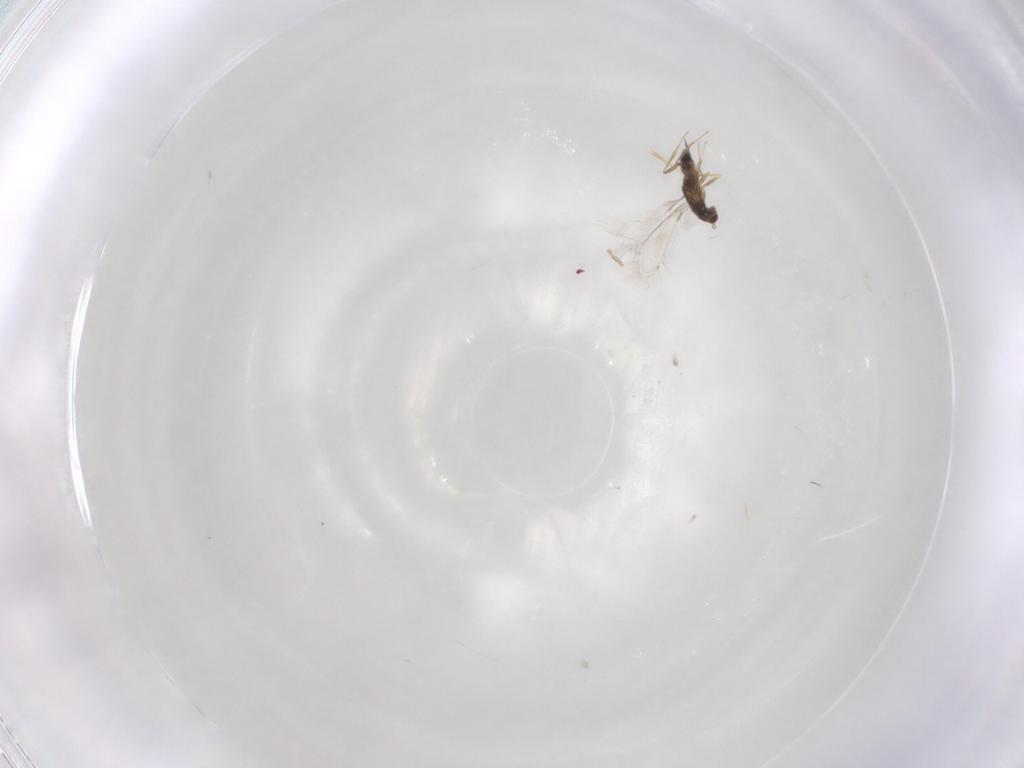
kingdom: Animalia
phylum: Arthropoda
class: Insecta
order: Hymenoptera
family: Mymaridae
